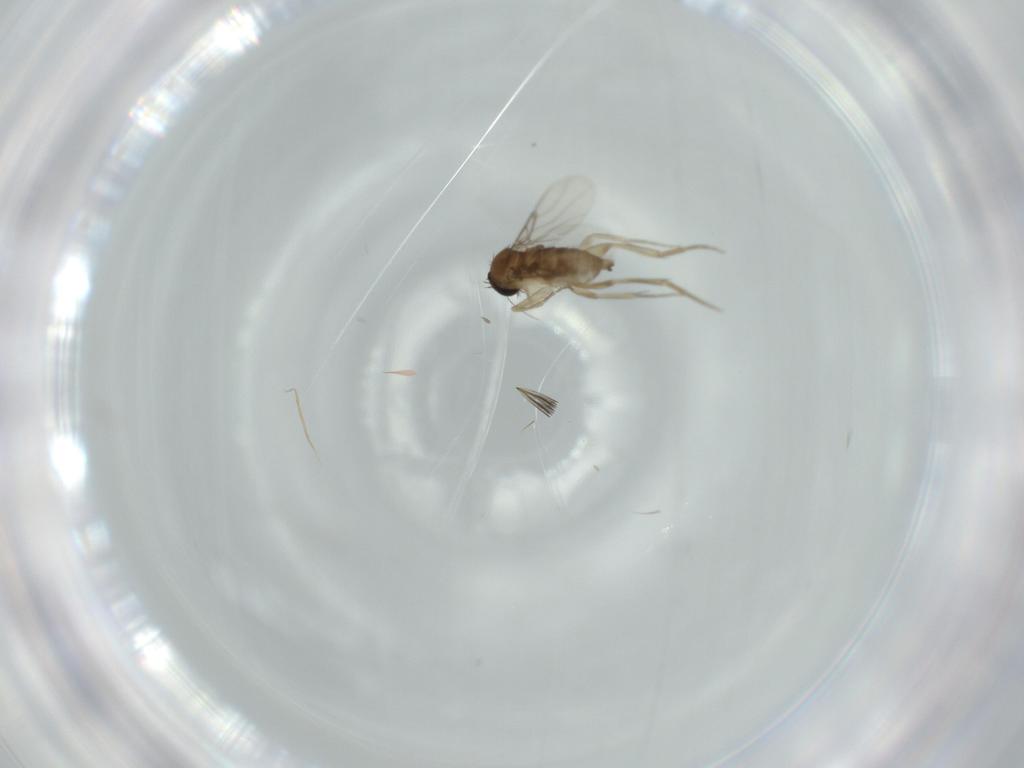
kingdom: Animalia
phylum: Arthropoda
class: Insecta
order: Diptera
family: Phoridae
